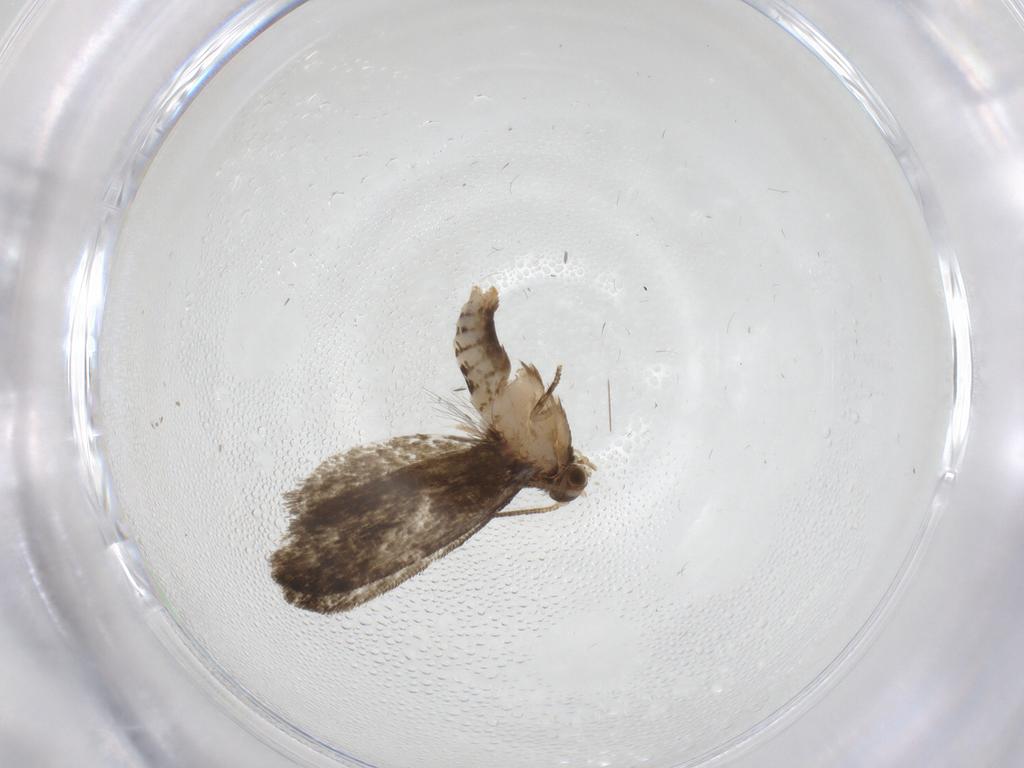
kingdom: Animalia
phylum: Arthropoda
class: Insecta
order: Lepidoptera
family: Tineidae
